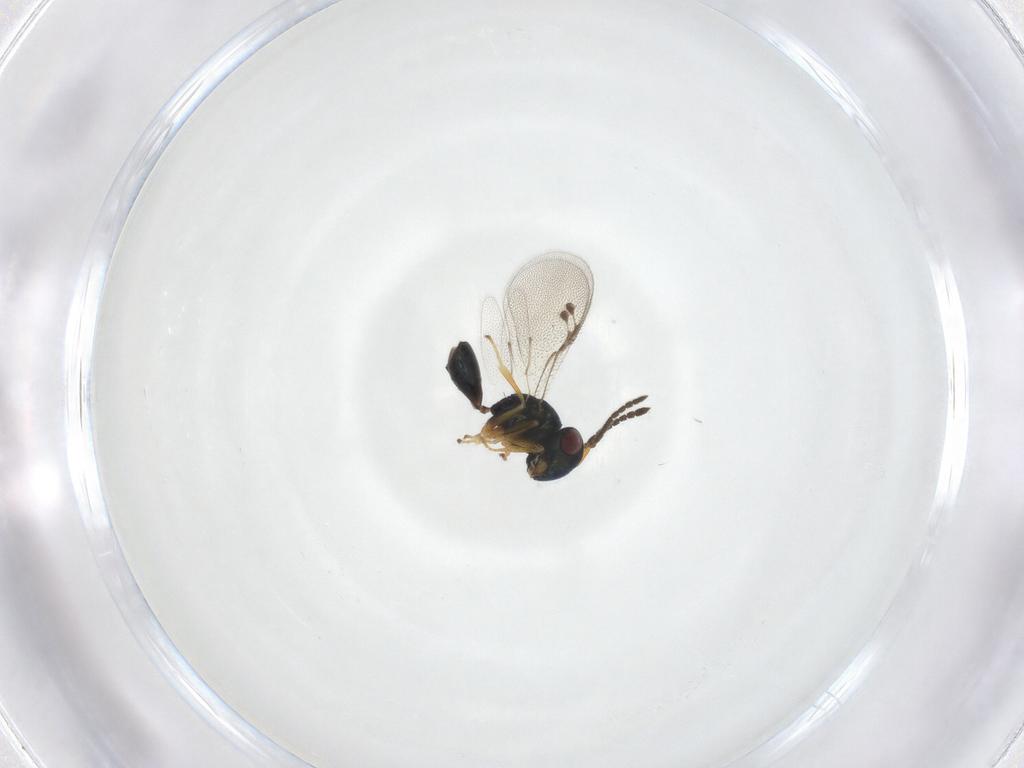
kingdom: Animalia
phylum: Arthropoda
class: Insecta
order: Hymenoptera
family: Pteromalidae
